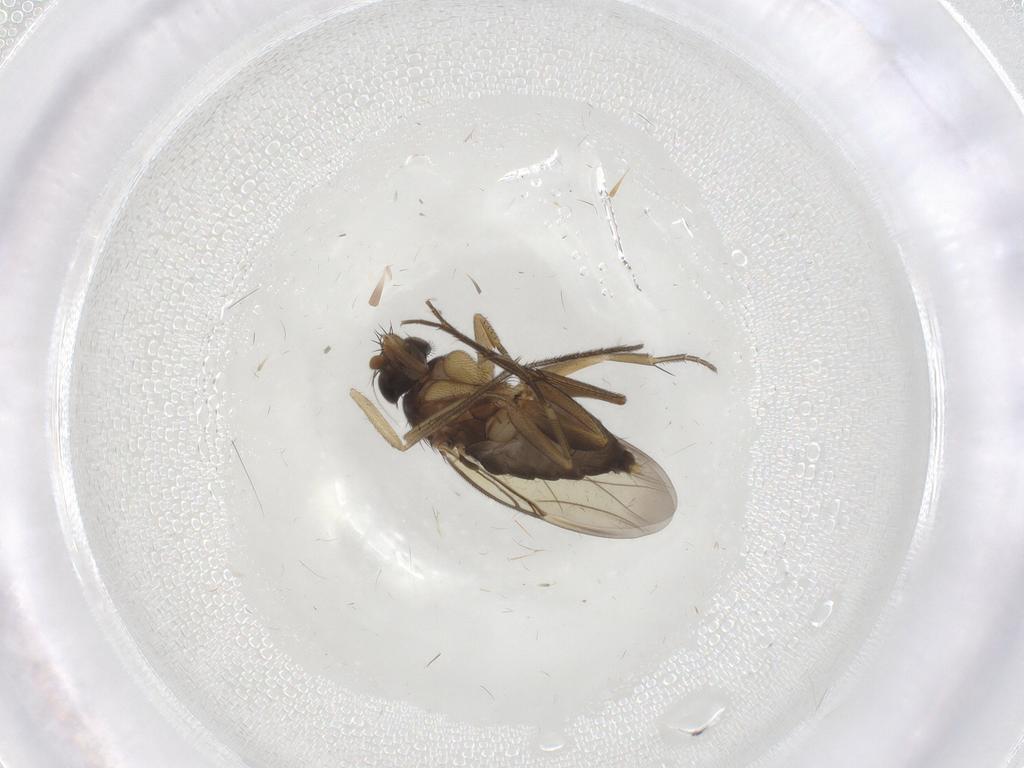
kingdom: Animalia
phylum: Arthropoda
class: Insecta
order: Diptera
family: Phoridae
